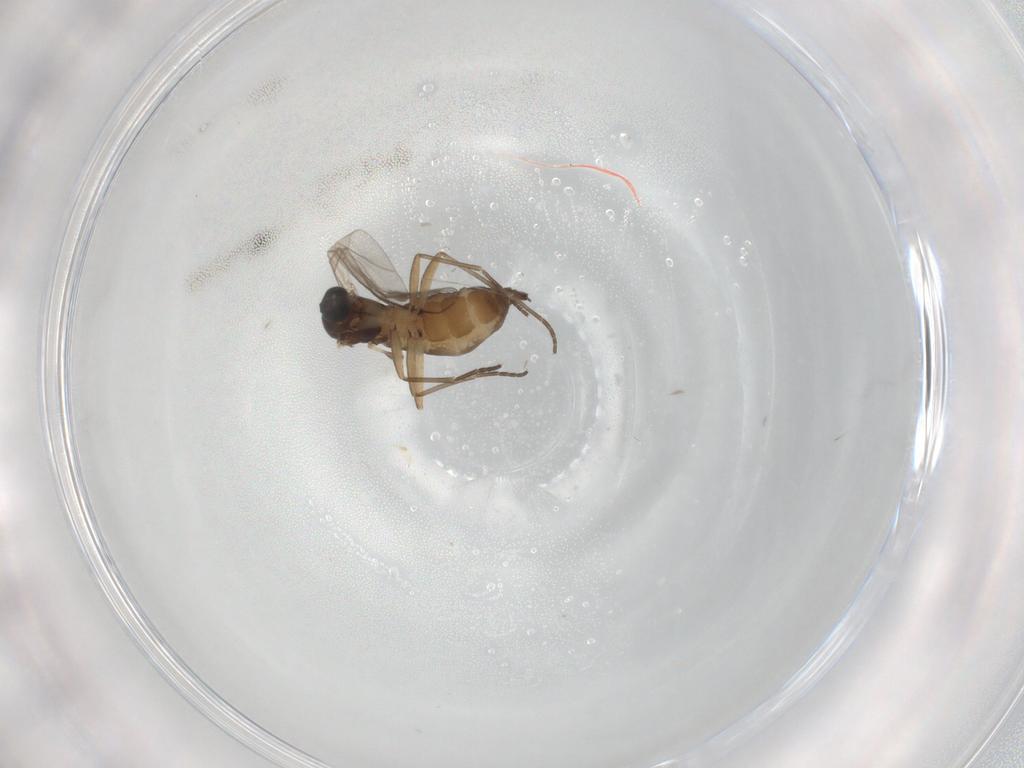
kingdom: Animalia
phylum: Arthropoda
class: Insecta
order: Diptera
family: Sciaridae
